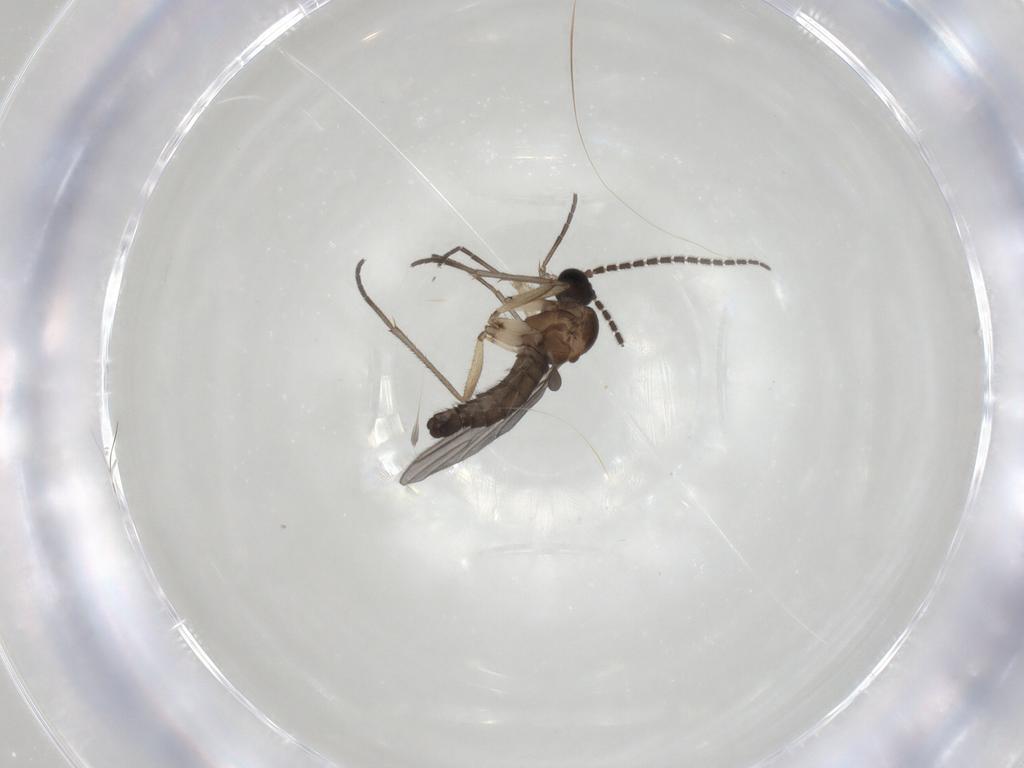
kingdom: Animalia
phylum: Arthropoda
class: Insecta
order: Diptera
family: Sciaridae
